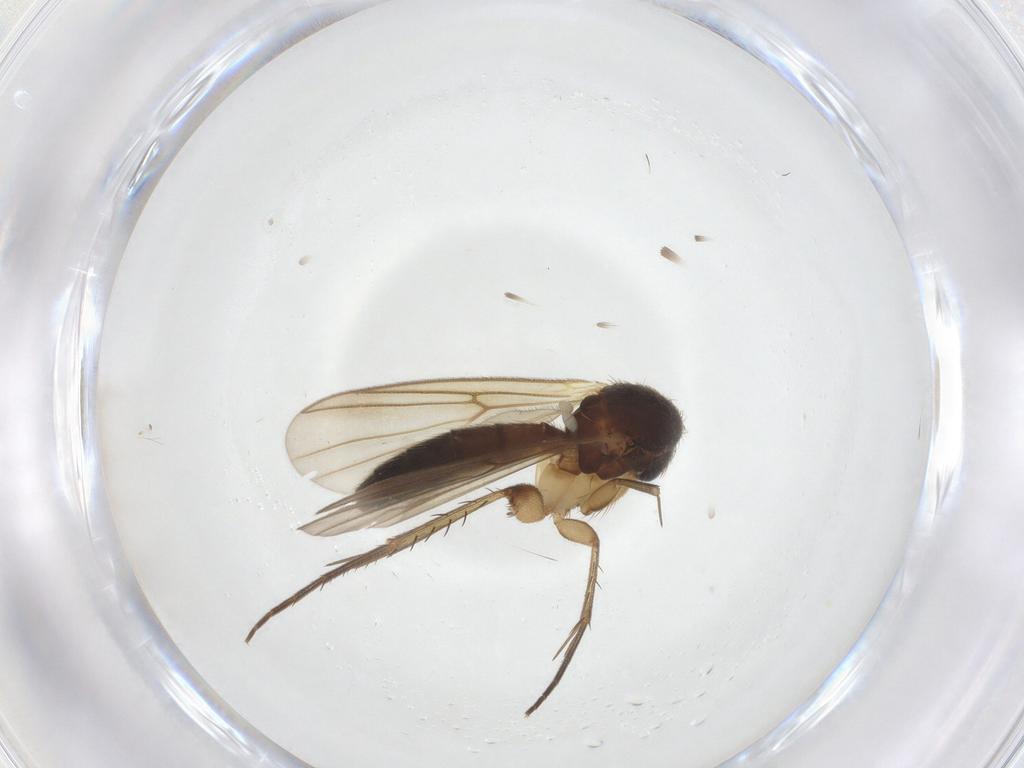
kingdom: Animalia
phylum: Arthropoda
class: Insecta
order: Diptera
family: Mycetophilidae
